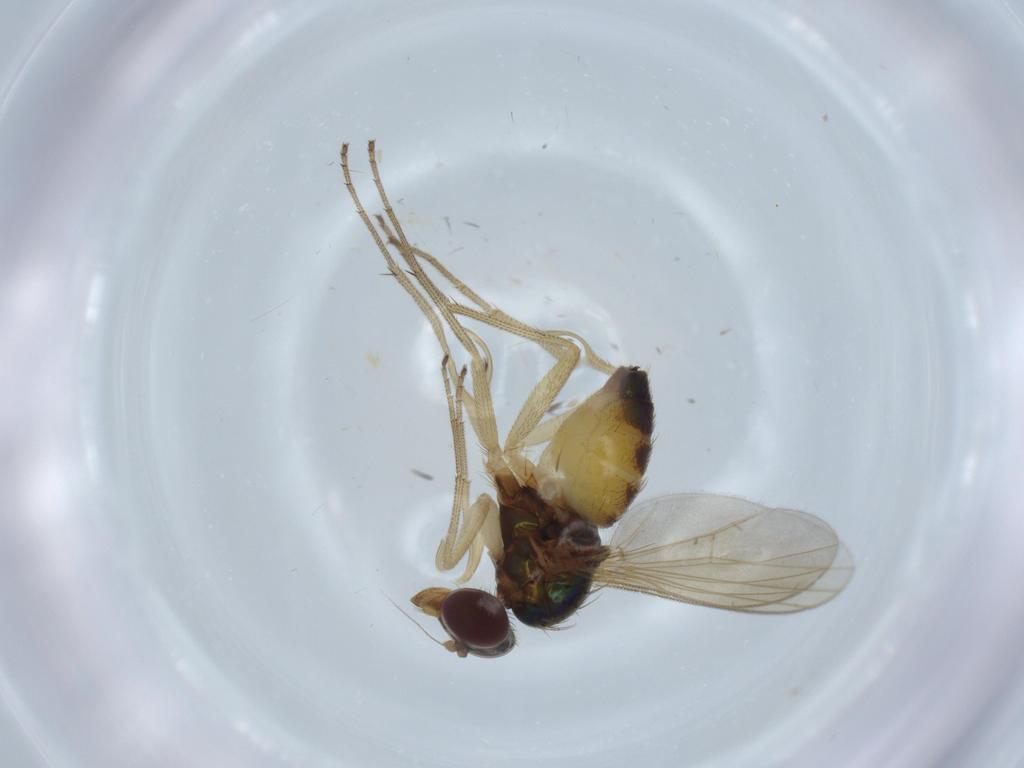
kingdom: Animalia
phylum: Arthropoda
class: Insecta
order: Diptera
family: Dolichopodidae
